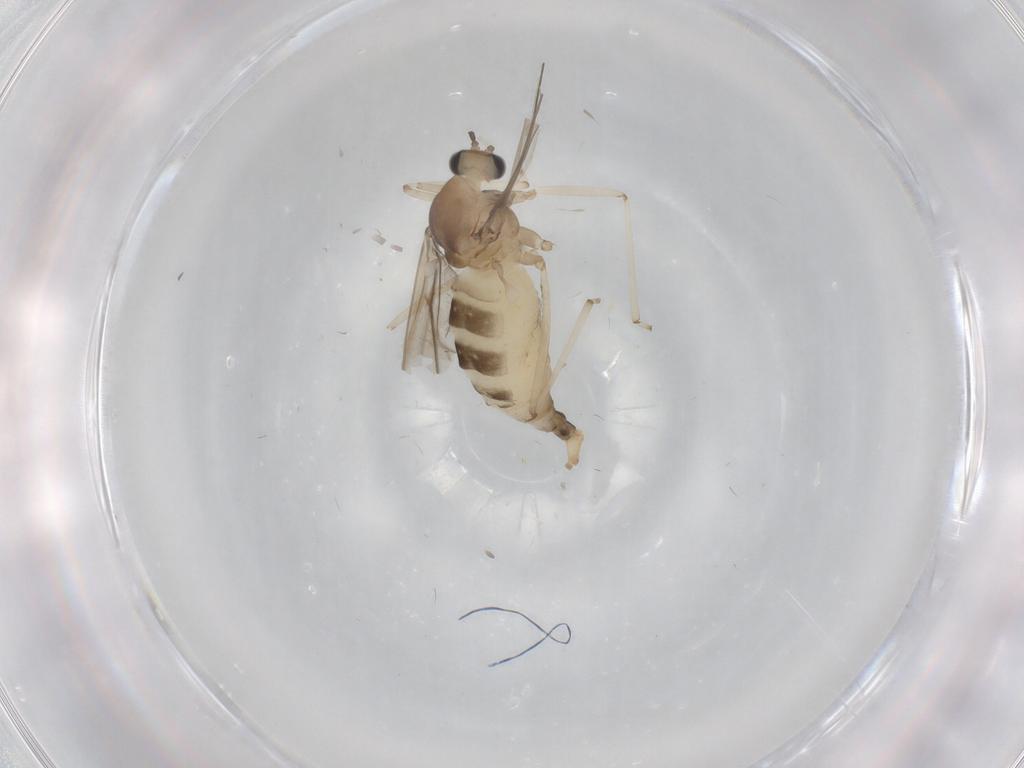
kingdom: Animalia
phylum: Arthropoda
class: Insecta
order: Diptera
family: Cecidomyiidae
